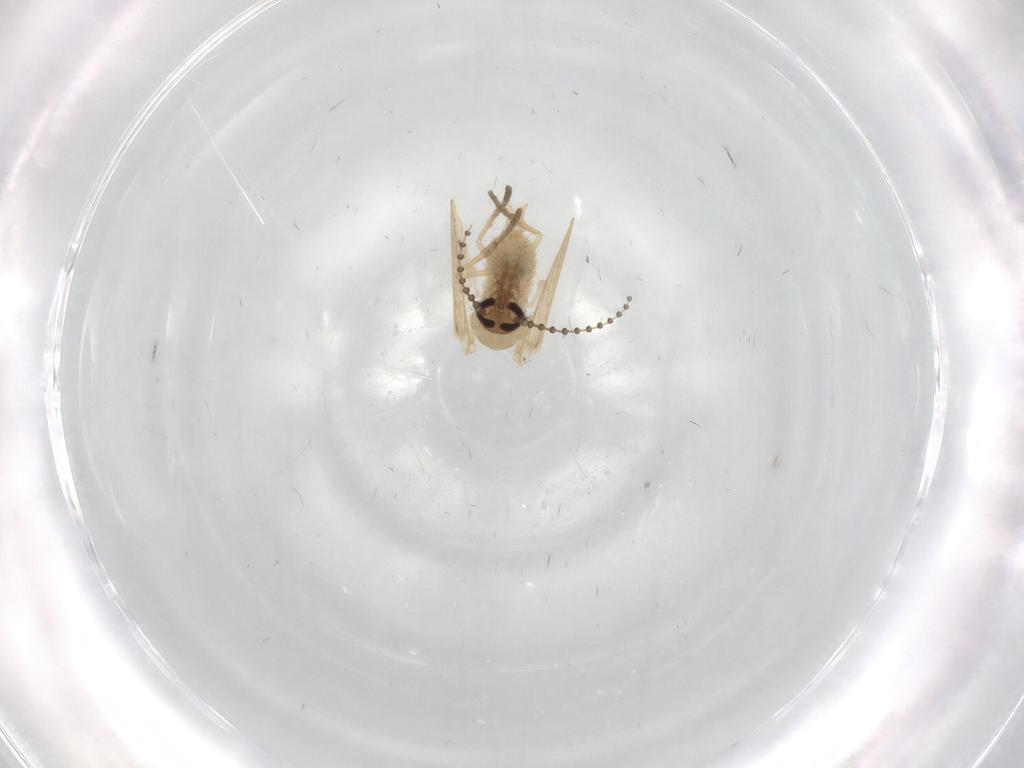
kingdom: Animalia
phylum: Arthropoda
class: Insecta
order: Diptera
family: Psychodidae
